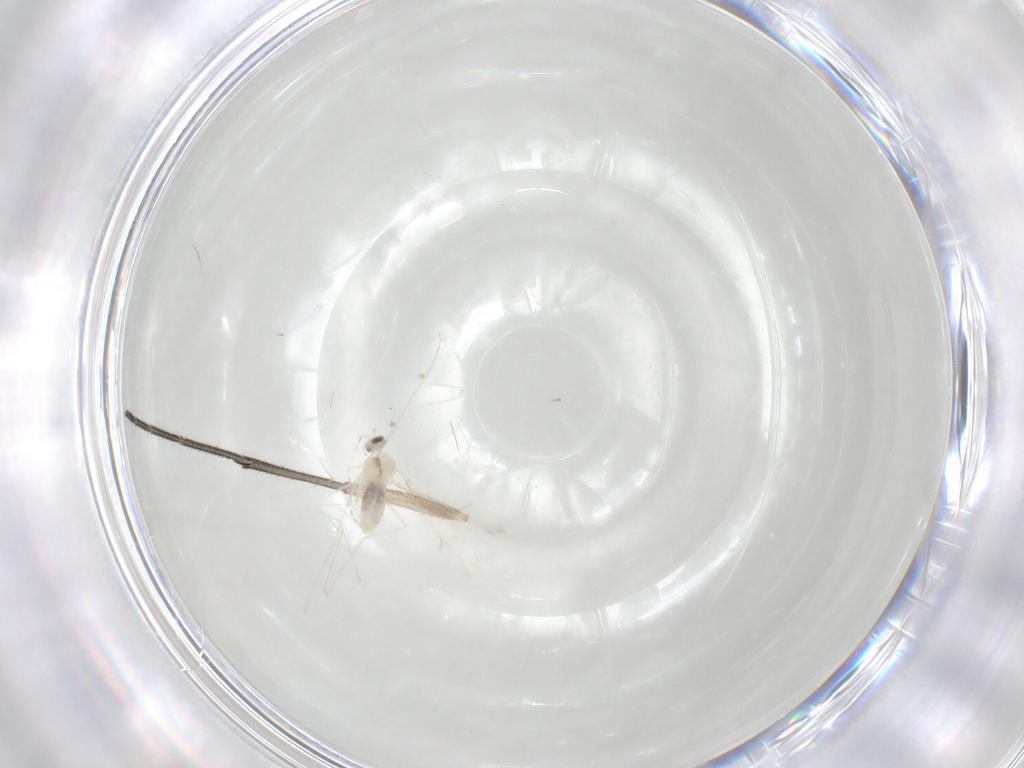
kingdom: Animalia
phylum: Arthropoda
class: Insecta
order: Diptera
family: Keroplatidae
